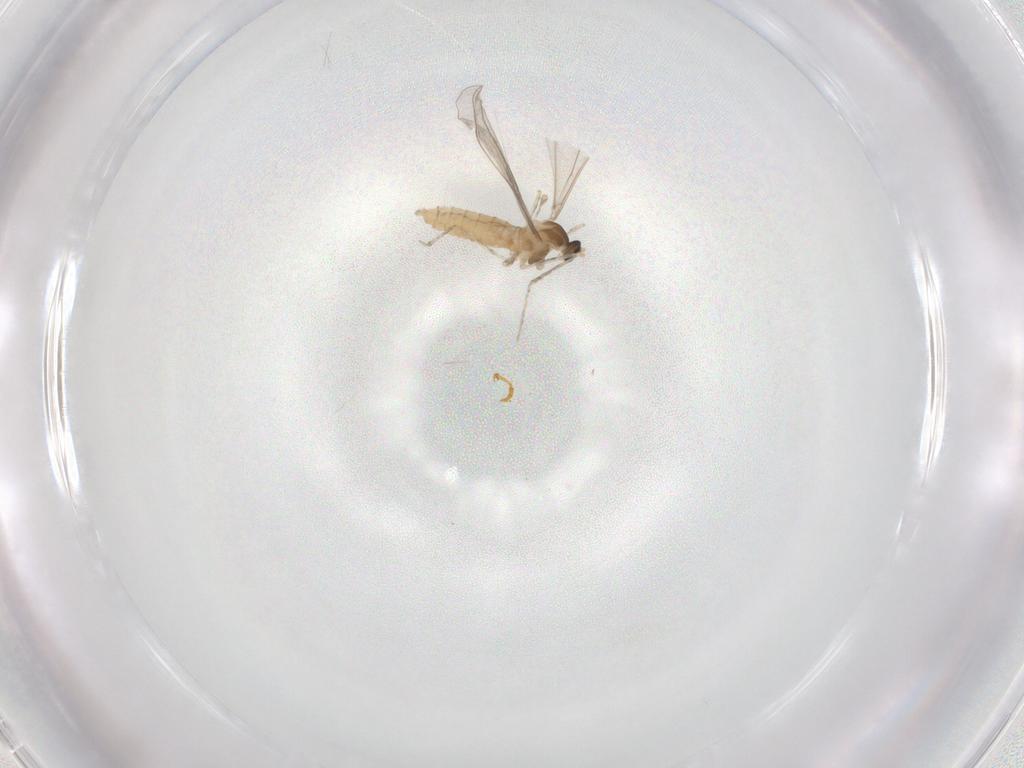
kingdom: Animalia
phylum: Arthropoda
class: Insecta
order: Diptera
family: Cecidomyiidae
